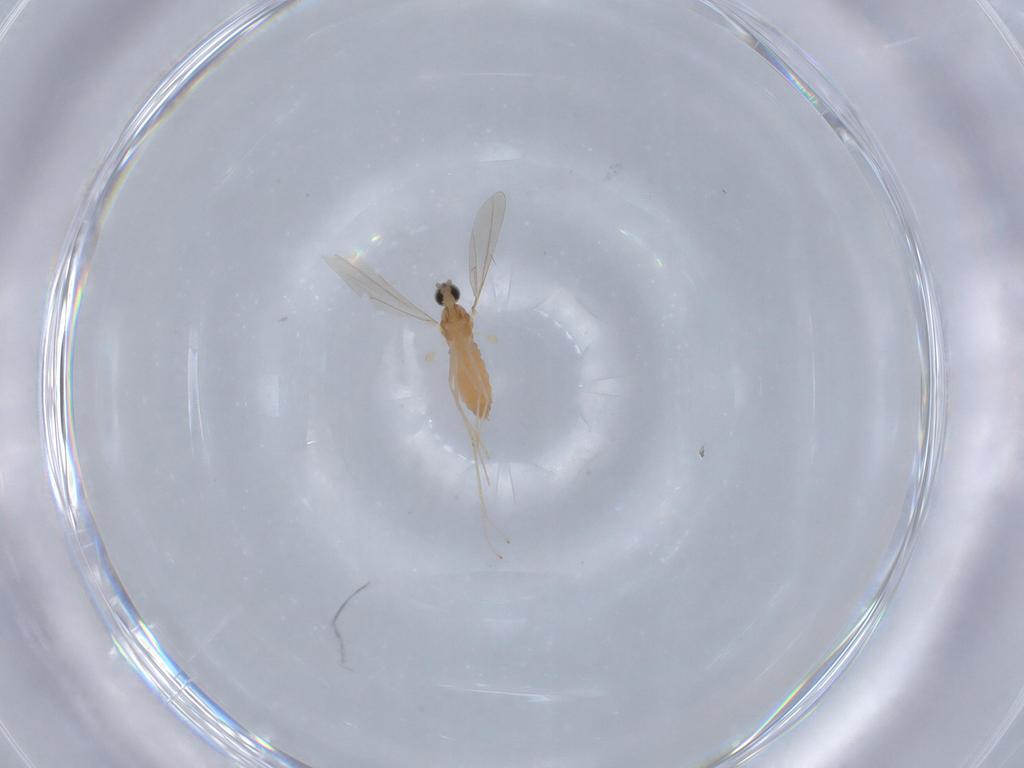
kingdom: Animalia
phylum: Arthropoda
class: Insecta
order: Diptera
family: Cecidomyiidae
